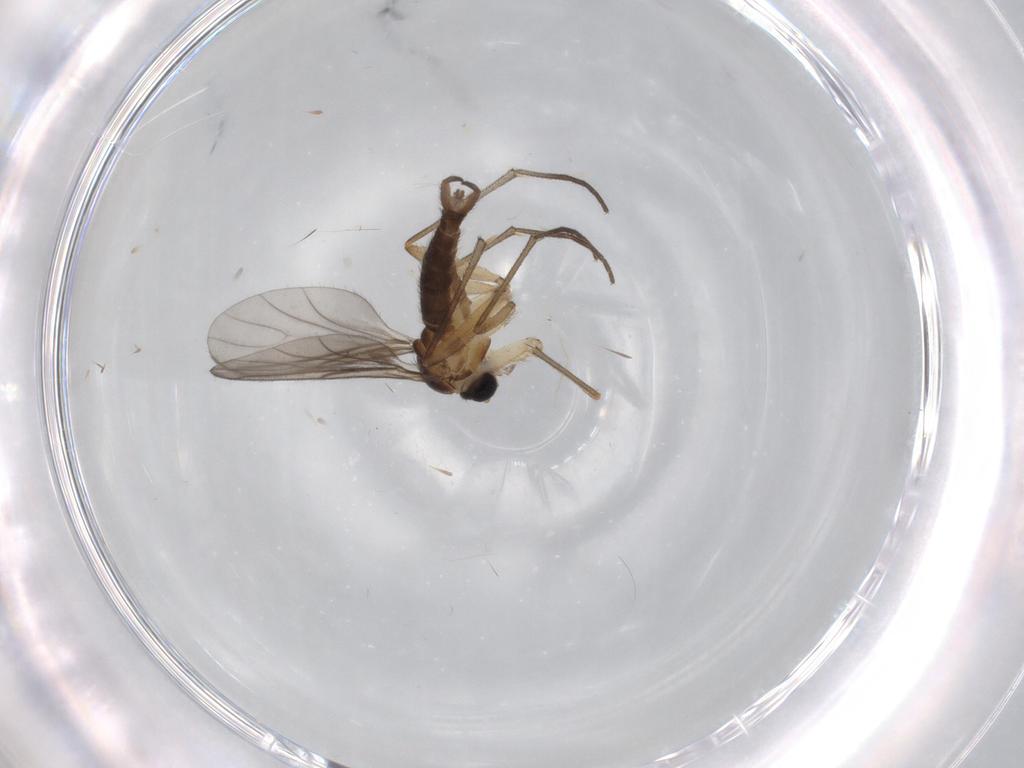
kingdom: Animalia
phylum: Arthropoda
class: Insecta
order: Diptera
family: Sciaridae
